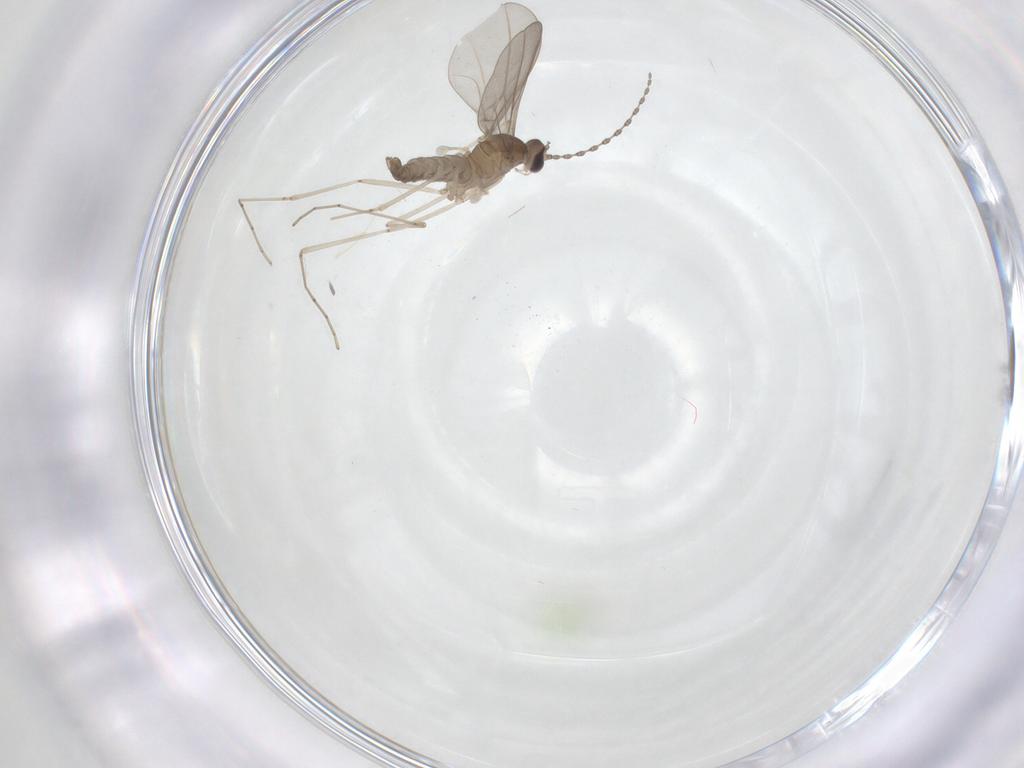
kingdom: Animalia
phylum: Arthropoda
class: Insecta
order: Diptera
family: Cecidomyiidae
